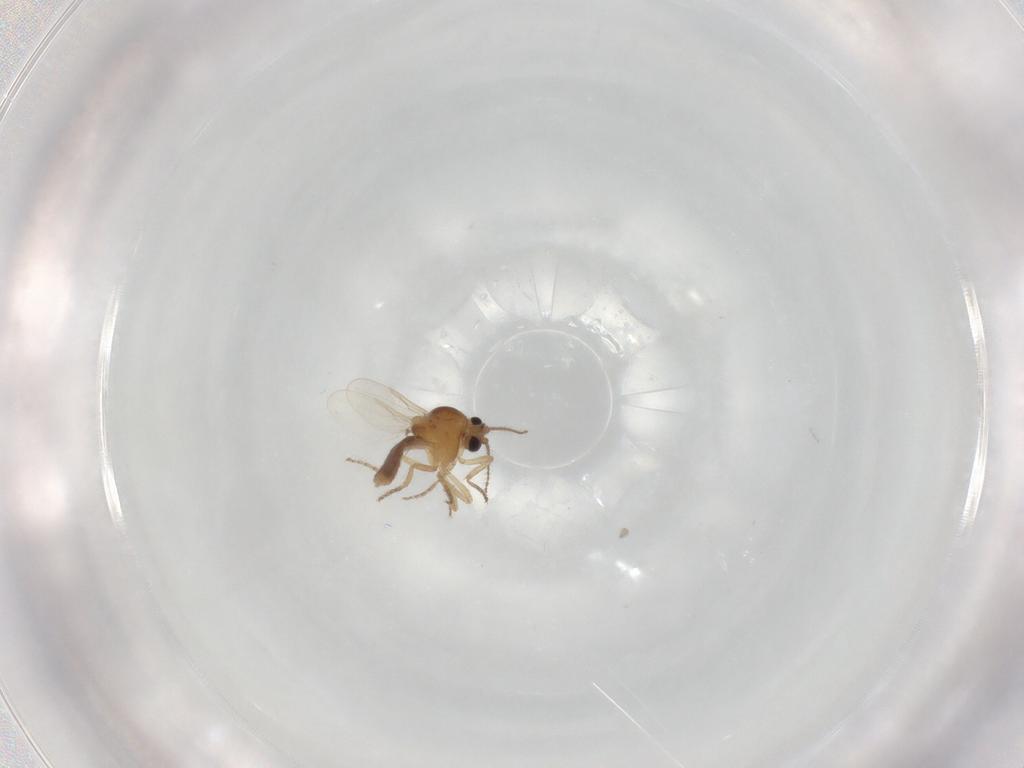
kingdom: Animalia
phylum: Arthropoda
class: Insecta
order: Diptera
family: Ceratopogonidae
